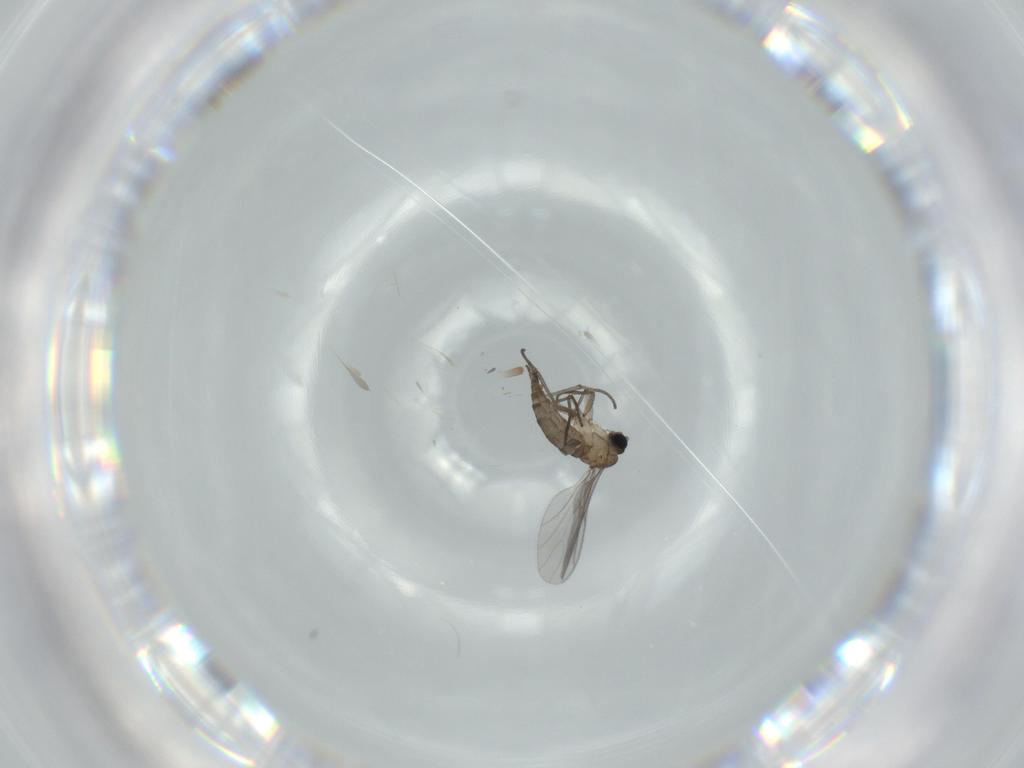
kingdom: Animalia
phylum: Arthropoda
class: Insecta
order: Diptera
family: Sciaridae
